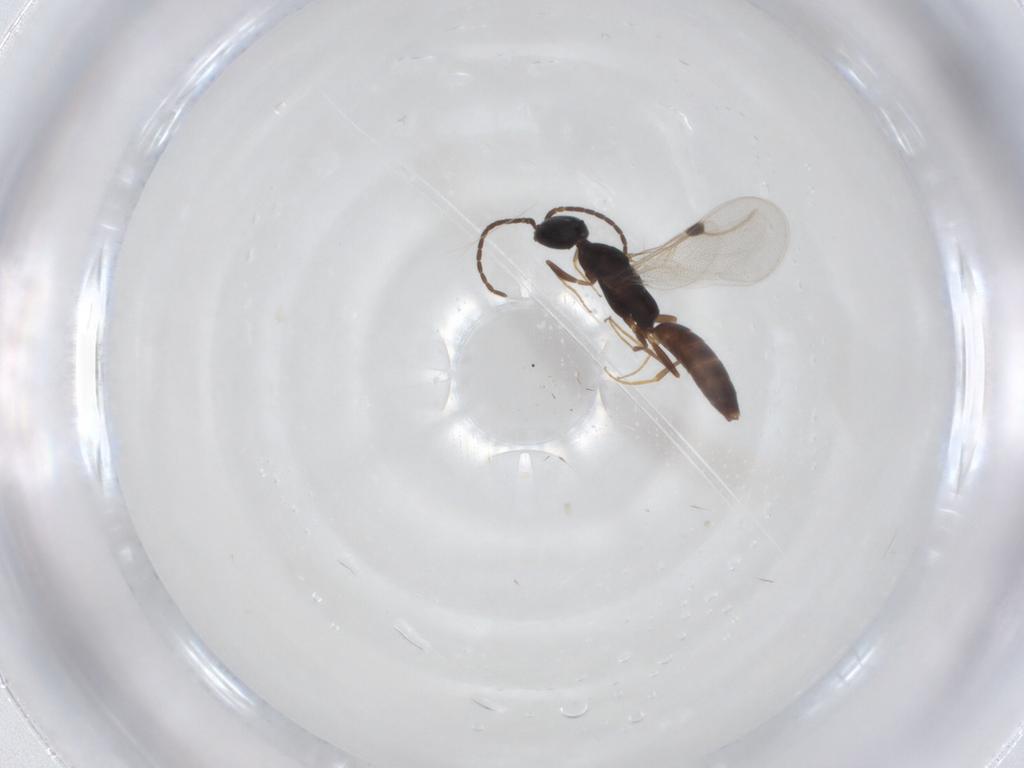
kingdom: Animalia
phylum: Arthropoda
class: Insecta
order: Hymenoptera
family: Bethylidae
